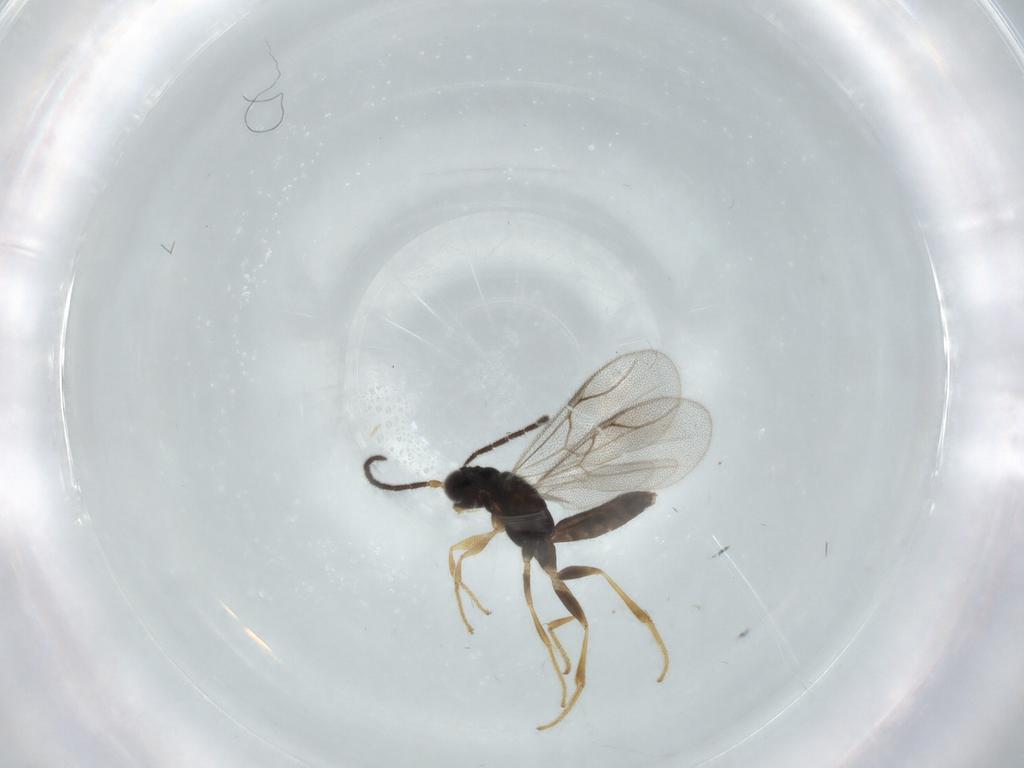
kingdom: Animalia
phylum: Arthropoda
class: Insecta
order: Hymenoptera
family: Dryinidae
